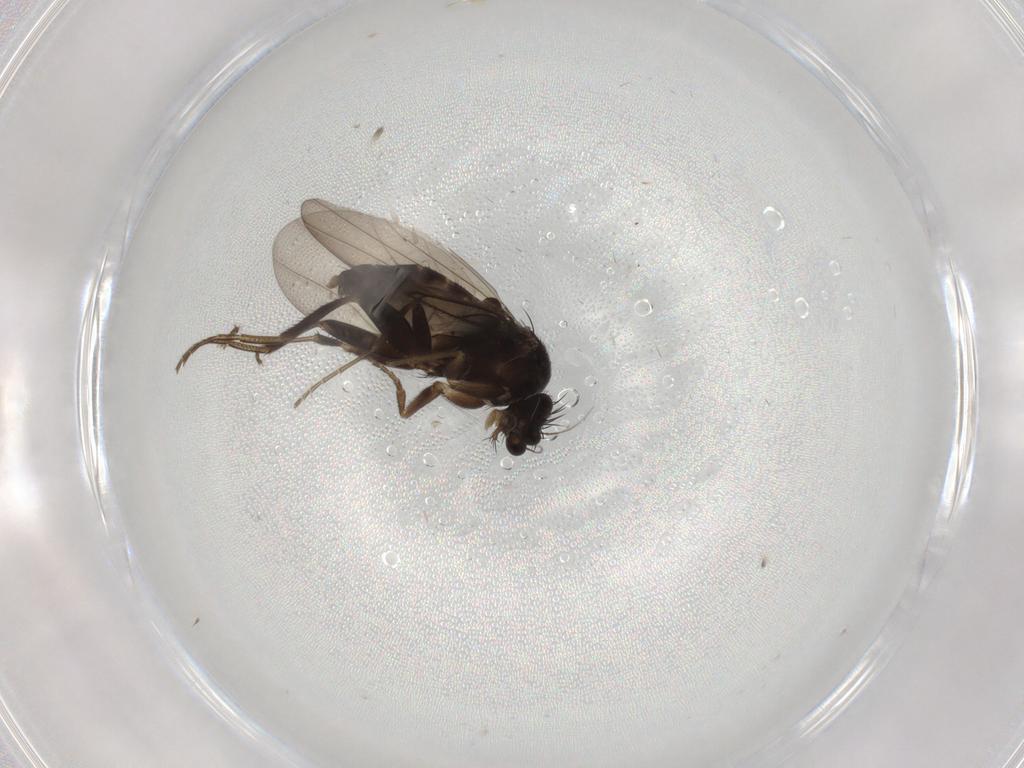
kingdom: Animalia
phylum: Arthropoda
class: Insecta
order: Diptera
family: Phoridae
